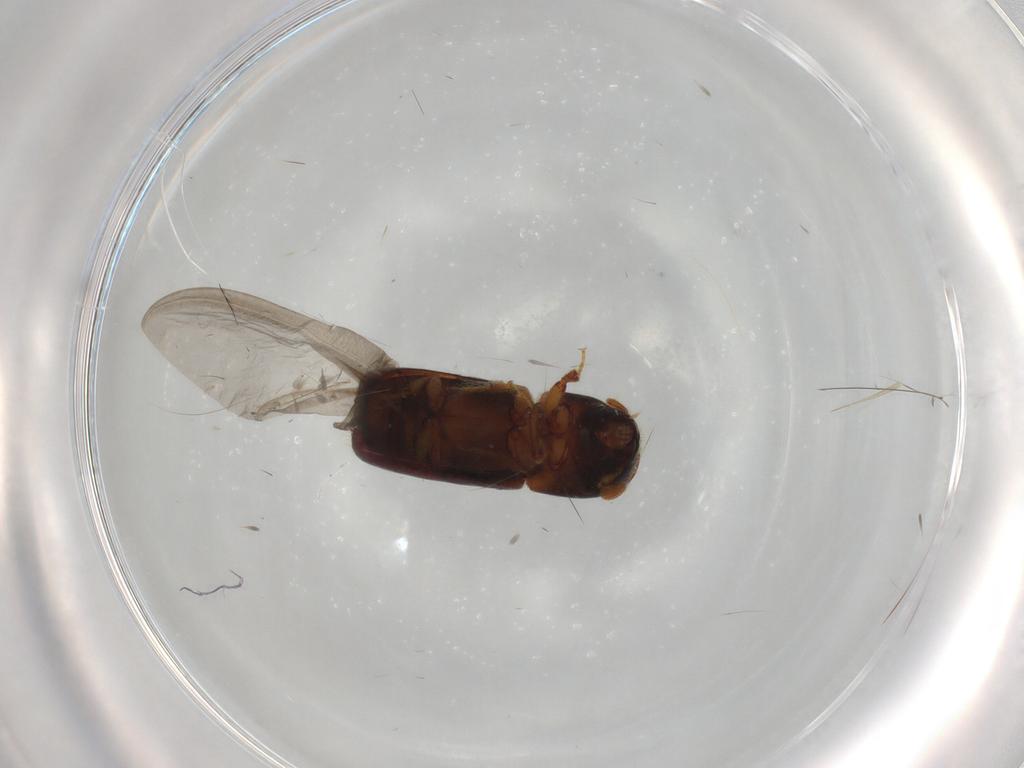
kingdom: Animalia
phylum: Arthropoda
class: Insecta
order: Coleoptera
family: Curculionidae
